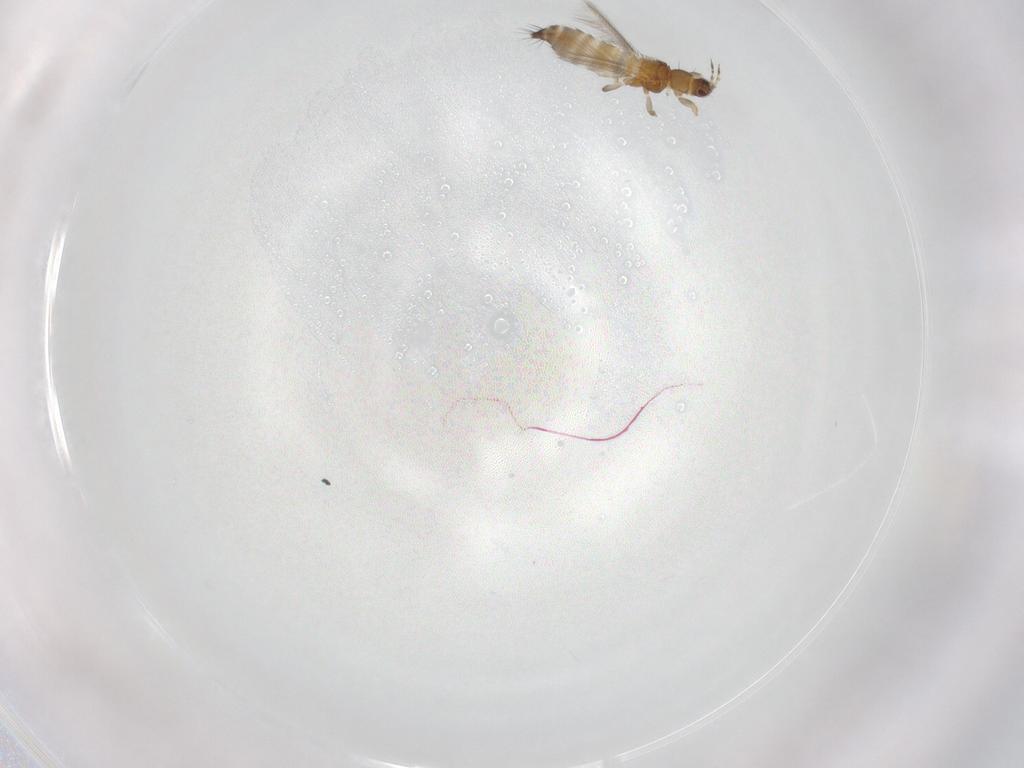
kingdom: Animalia
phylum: Arthropoda
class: Insecta
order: Thysanoptera
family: Thripidae
